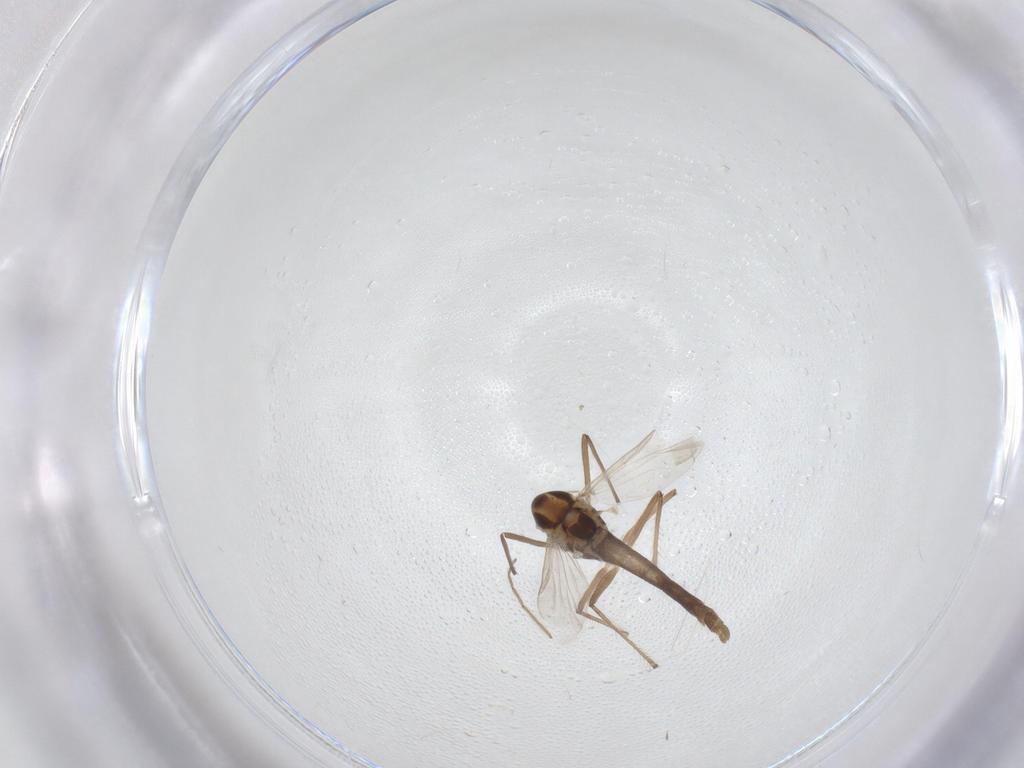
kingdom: Animalia
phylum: Arthropoda
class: Insecta
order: Diptera
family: Chironomidae
